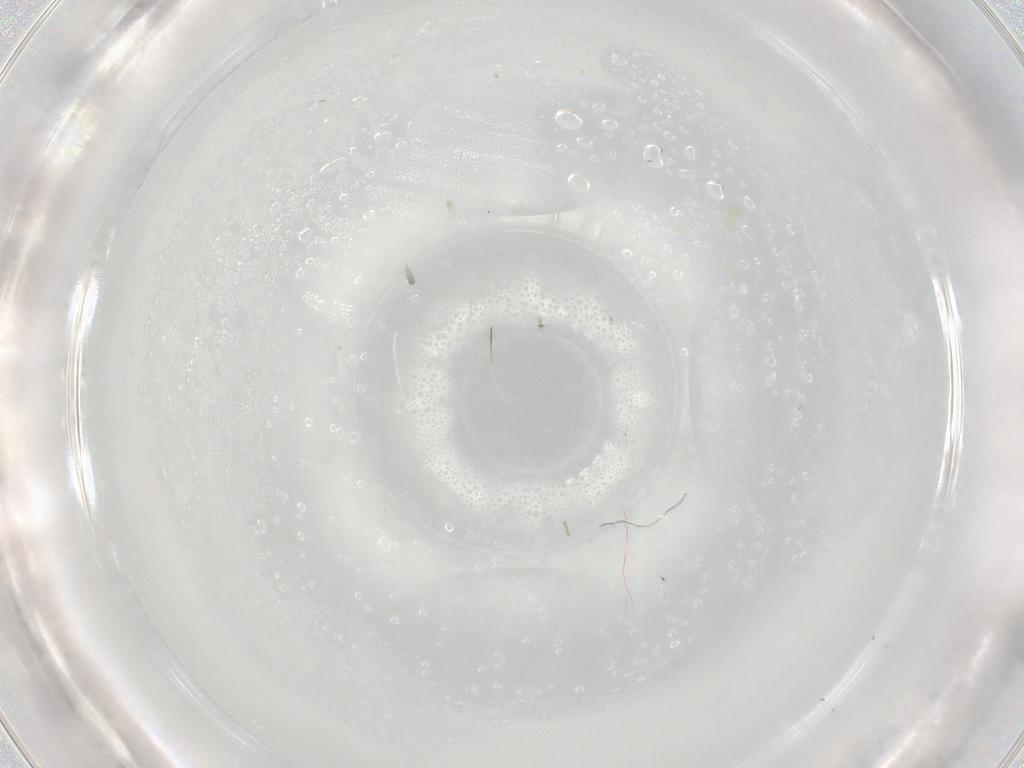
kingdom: Animalia
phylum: Arthropoda
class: Insecta
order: Diptera
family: Cecidomyiidae
